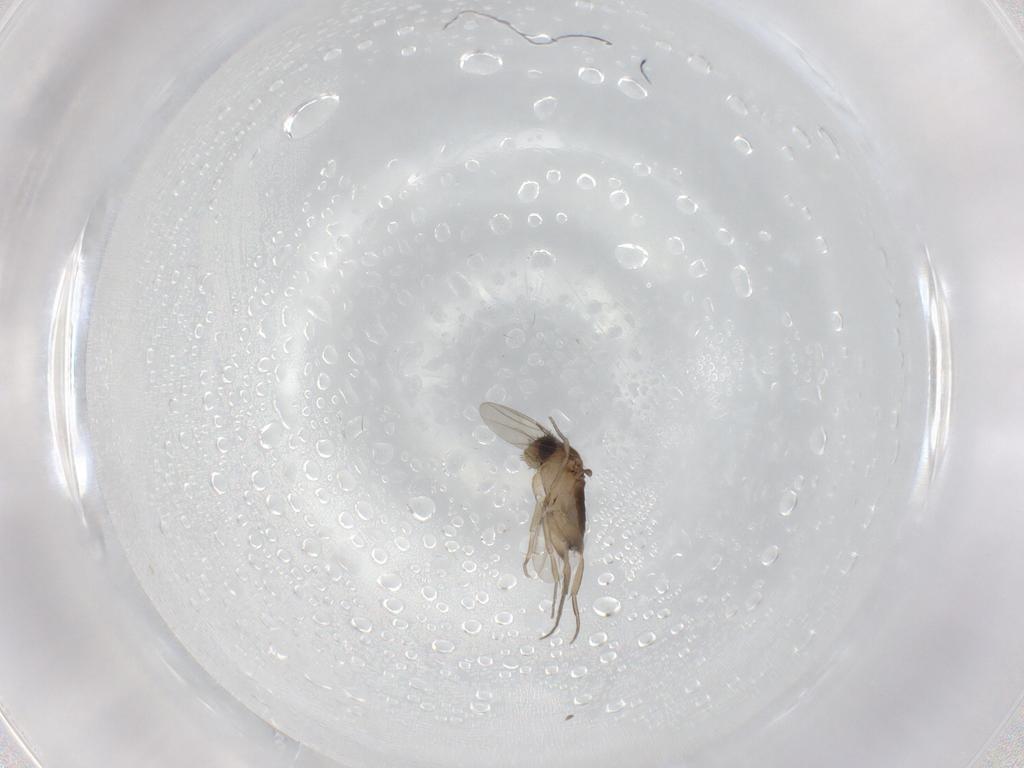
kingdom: Animalia
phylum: Arthropoda
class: Insecta
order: Diptera
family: Phoridae
